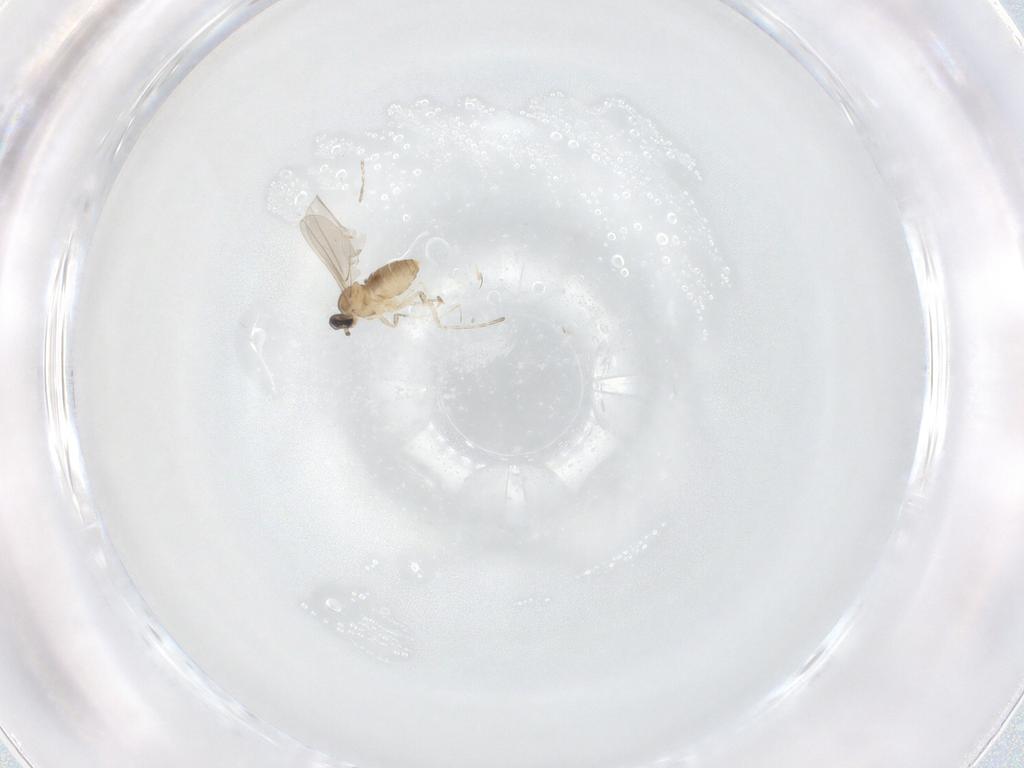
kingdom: Animalia
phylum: Arthropoda
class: Insecta
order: Diptera
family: Cecidomyiidae
